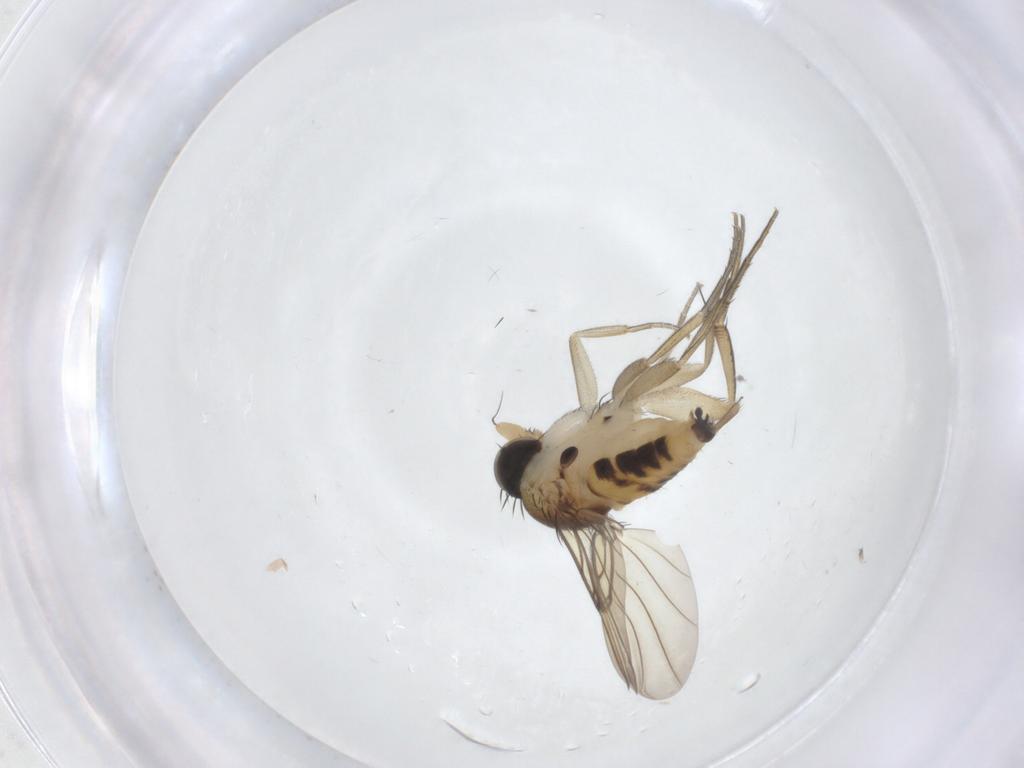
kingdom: Animalia
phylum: Arthropoda
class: Insecta
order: Diptera
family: Phoridae
